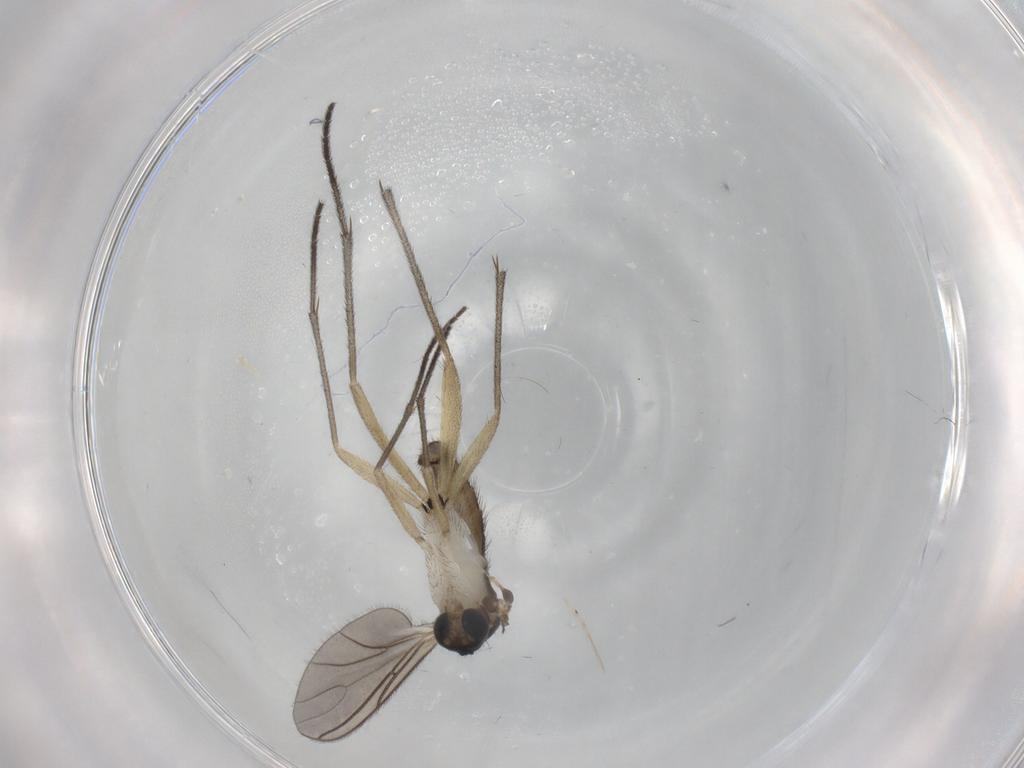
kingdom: Animalia
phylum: Arthropoda
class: Insecta
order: Diptera
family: Sciaridae
